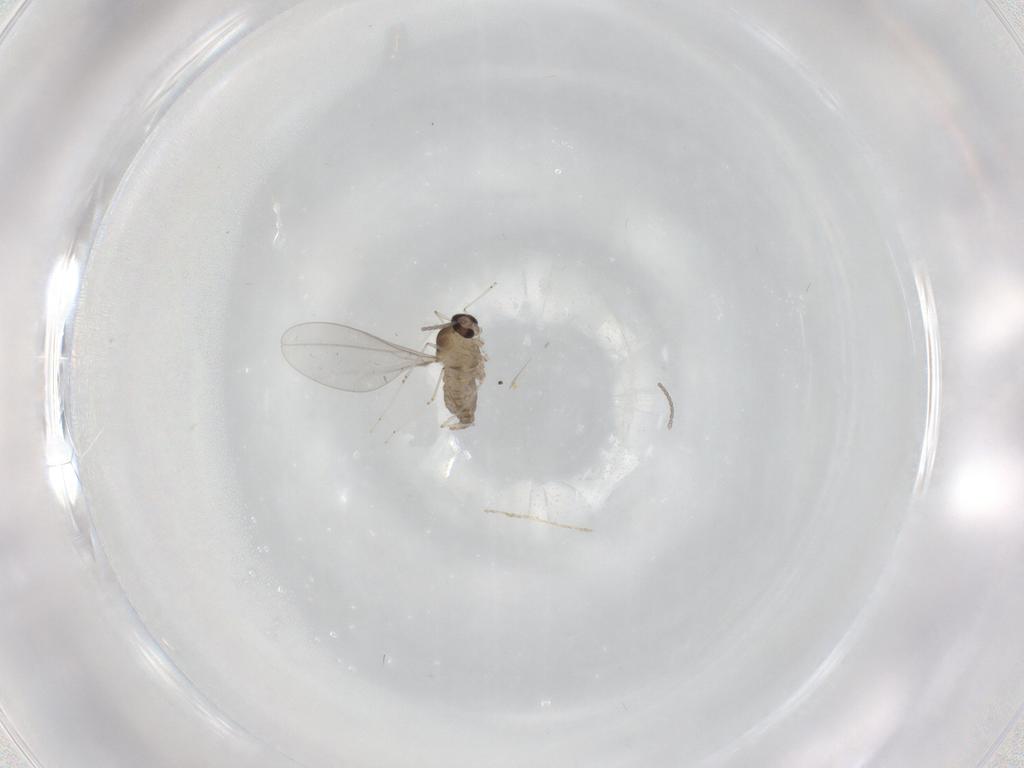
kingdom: Animalia
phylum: Arthropoda
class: Insecta
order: Diptera
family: Cecidomyiidae
